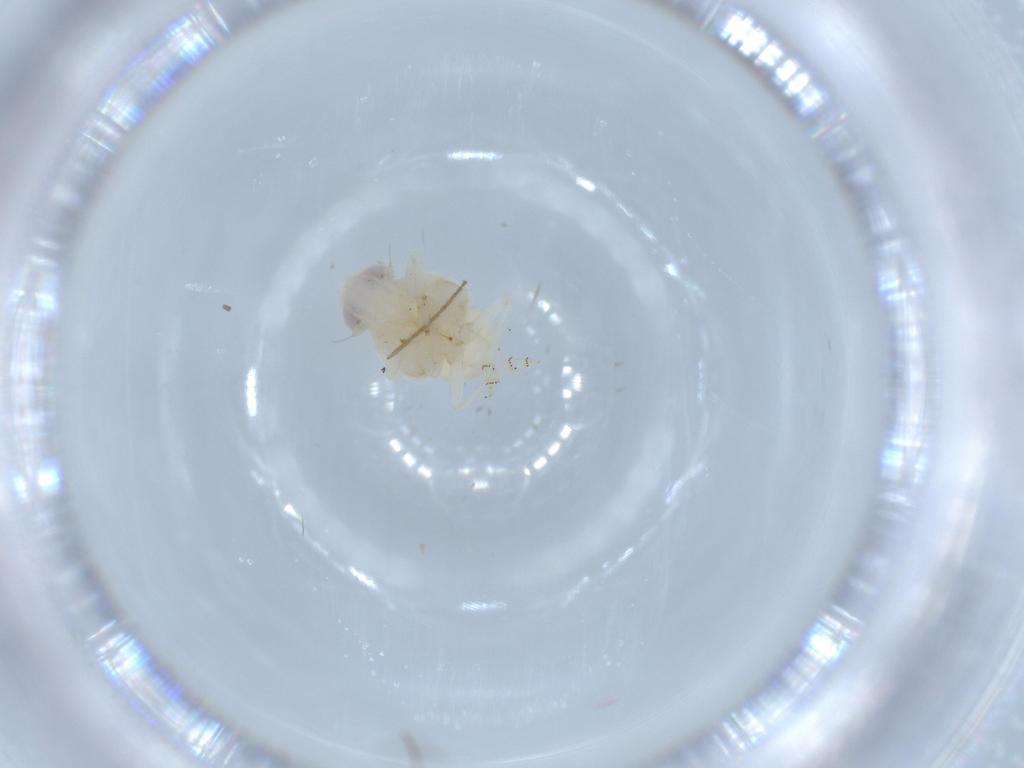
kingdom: Animalia
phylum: Arthropoda
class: Insecta
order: Hemiptera
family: Nogodinidae
